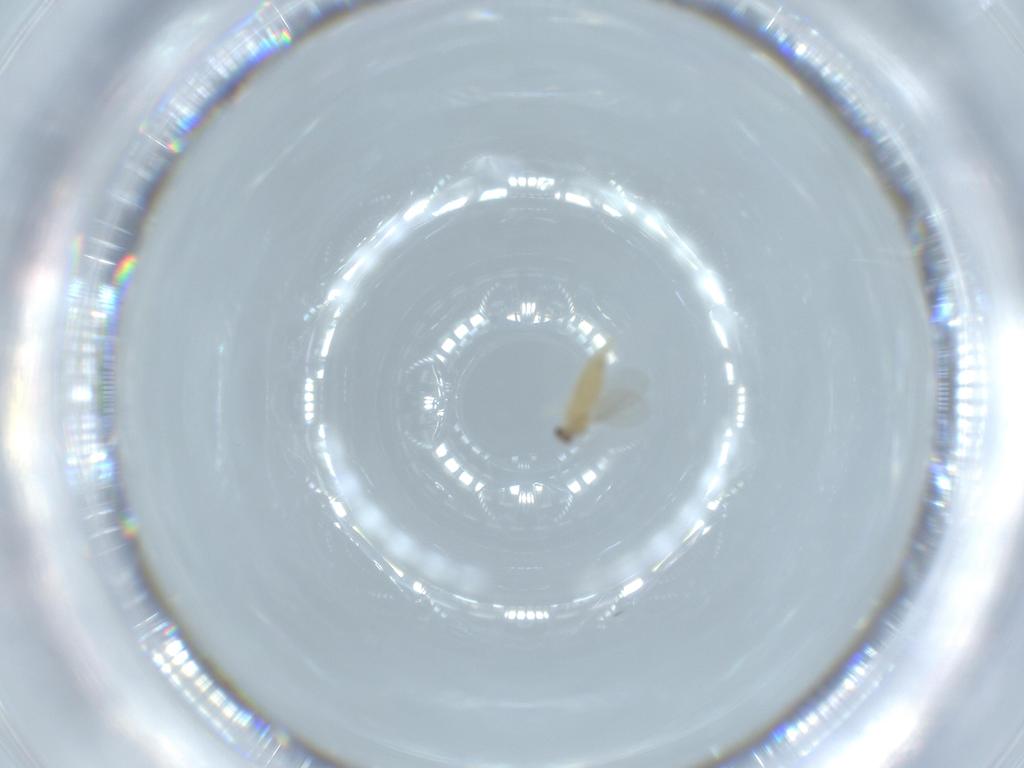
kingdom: Animalia
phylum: Arthropoda
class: Insecta
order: Diptera
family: Cecidomyiidae
